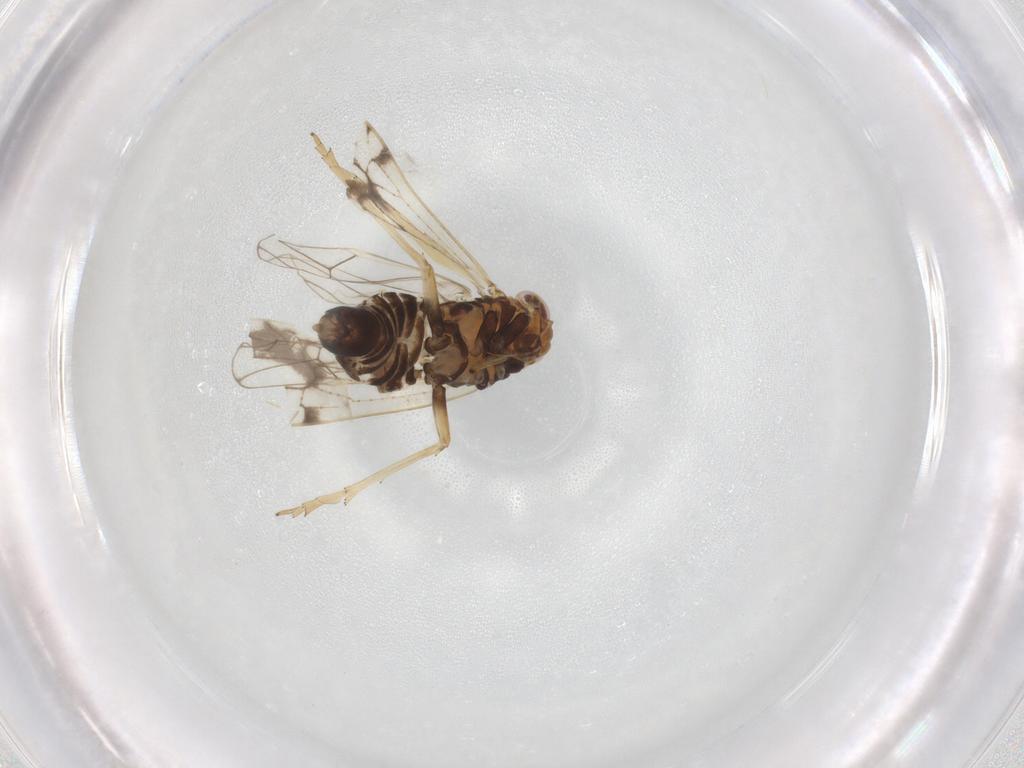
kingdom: Animalia
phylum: Arthropoda
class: Insecta
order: Hemiptera
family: Delphacidae
